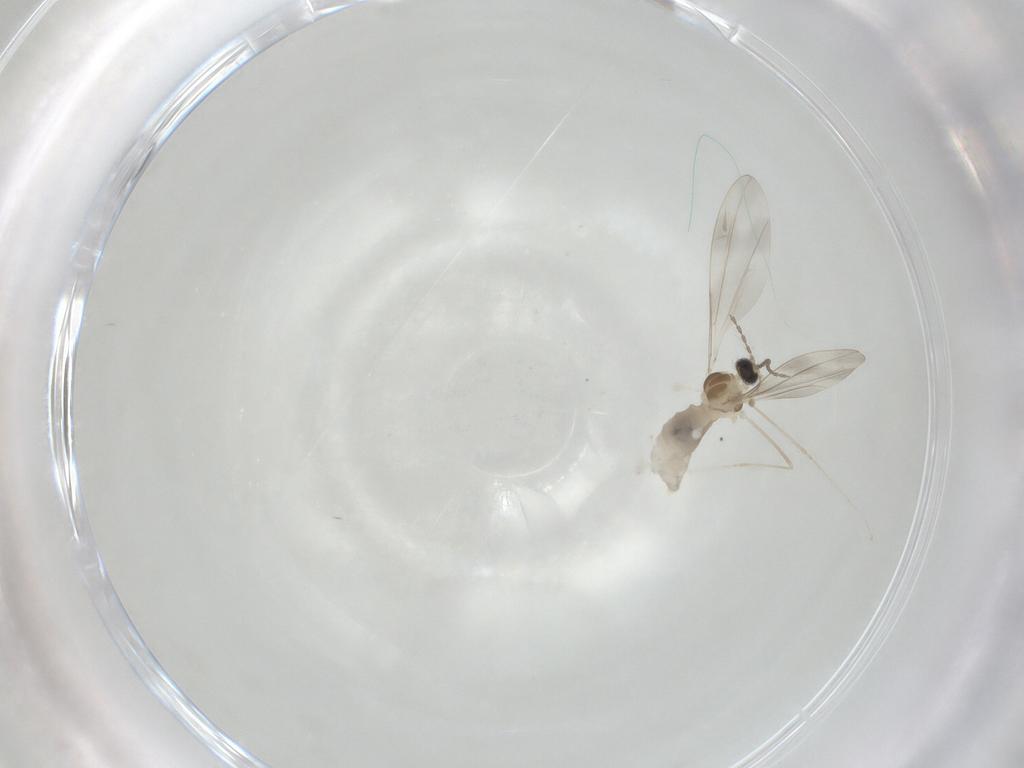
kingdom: Animalia
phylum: Arthropoda
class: Insecta
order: Diptera
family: Cecidomyiidae
